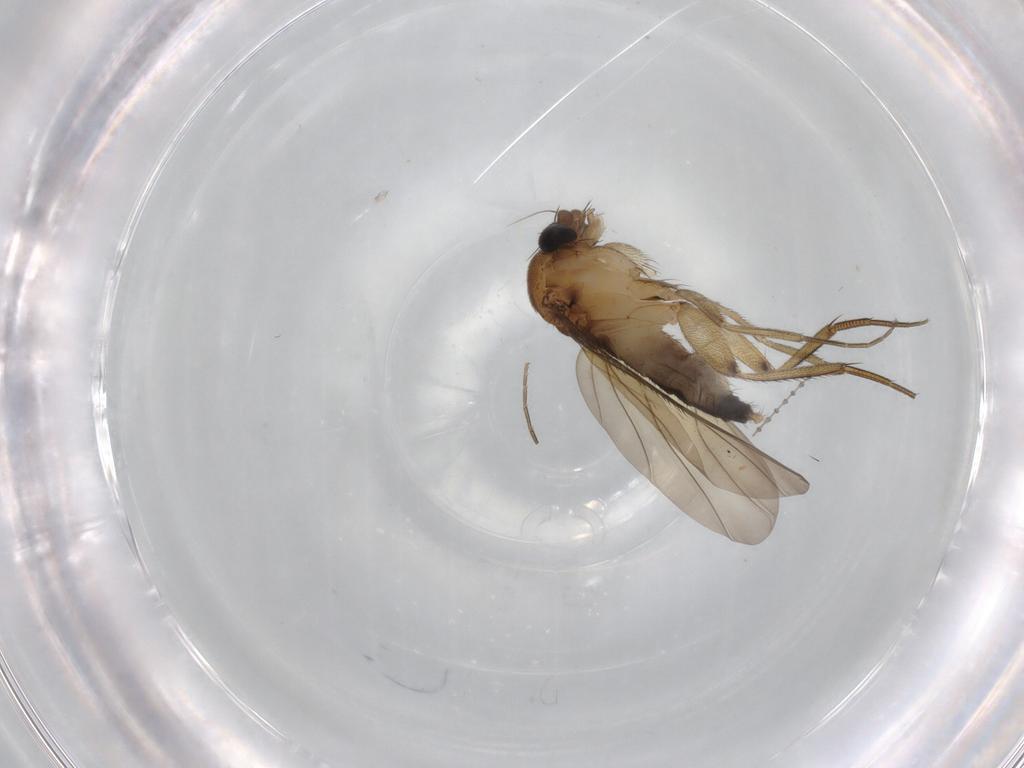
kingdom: Animalia
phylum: Arthropoda
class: Insecta
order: Diptera
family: Phoridae
